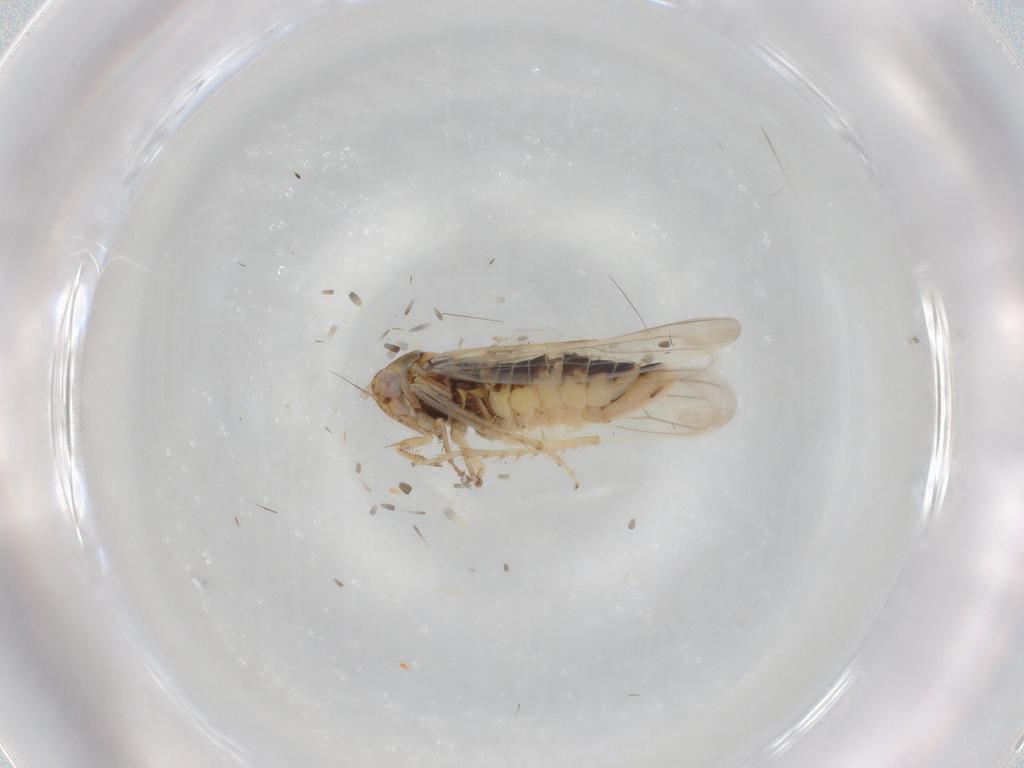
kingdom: Animalia
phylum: Arthropoda
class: Insecta
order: Hemiptera
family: Cicadellidae
